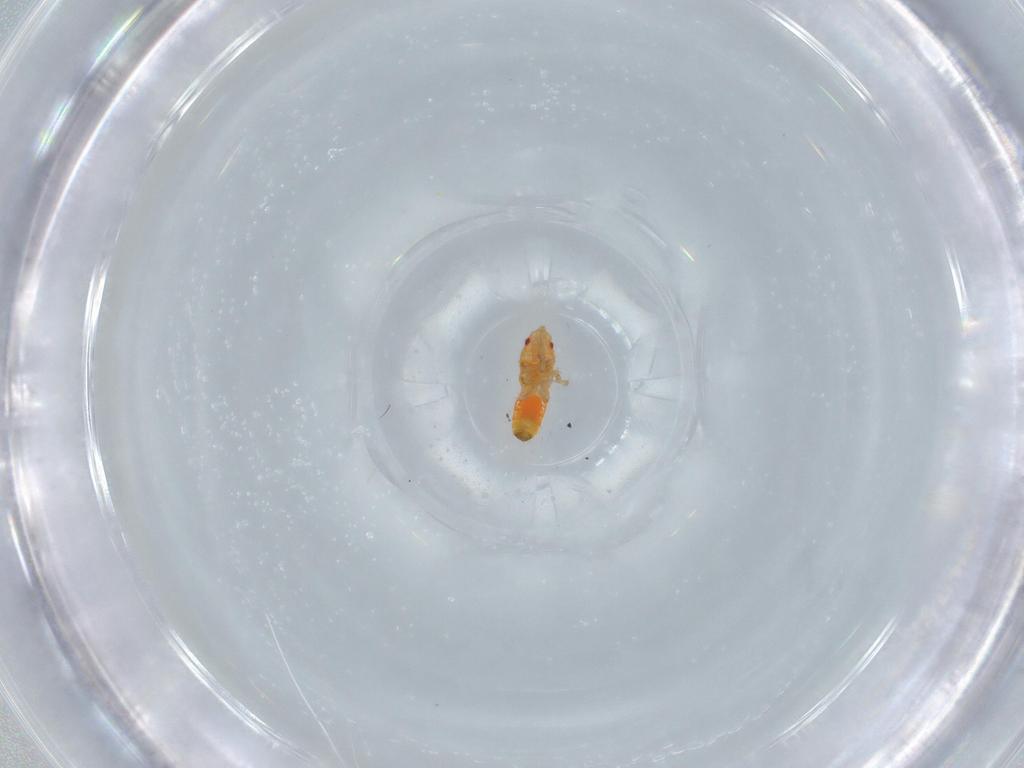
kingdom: Animalia
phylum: Arthropoda
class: Insecta
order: Hemiptera
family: Blissidae
